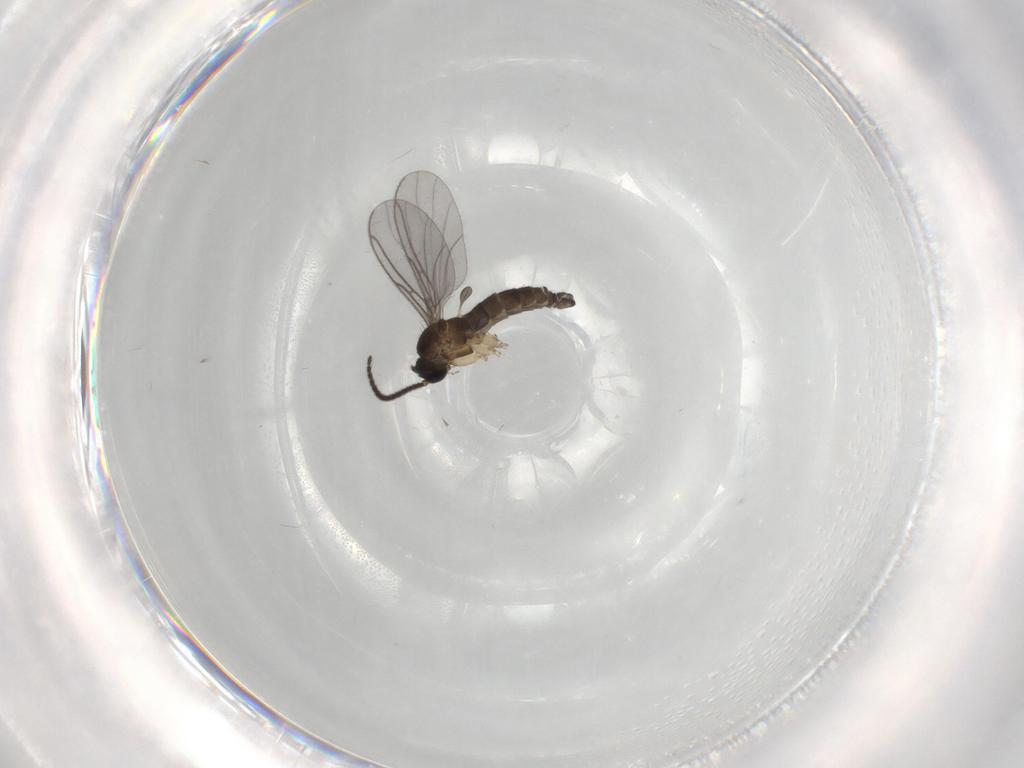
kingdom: Animalia
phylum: Arthropoda
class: Insecta
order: Diptera
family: Sciaridae
